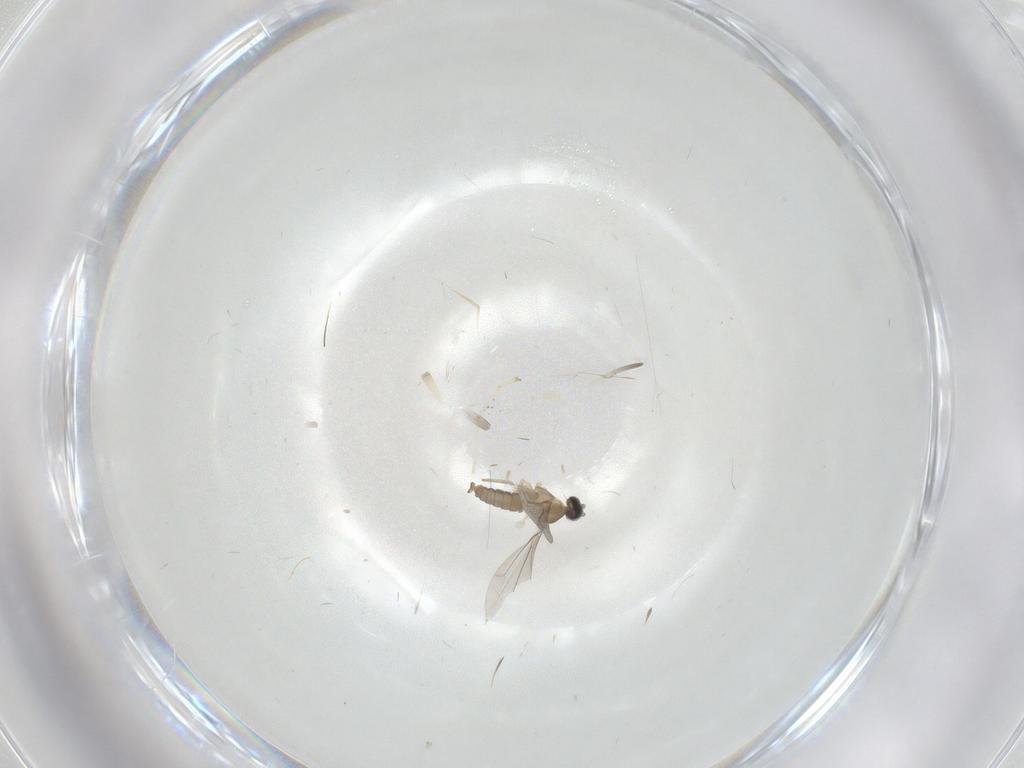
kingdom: Animalia
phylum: Arthropoda
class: Insecta
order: Diptera
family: Cecidomyiidae
